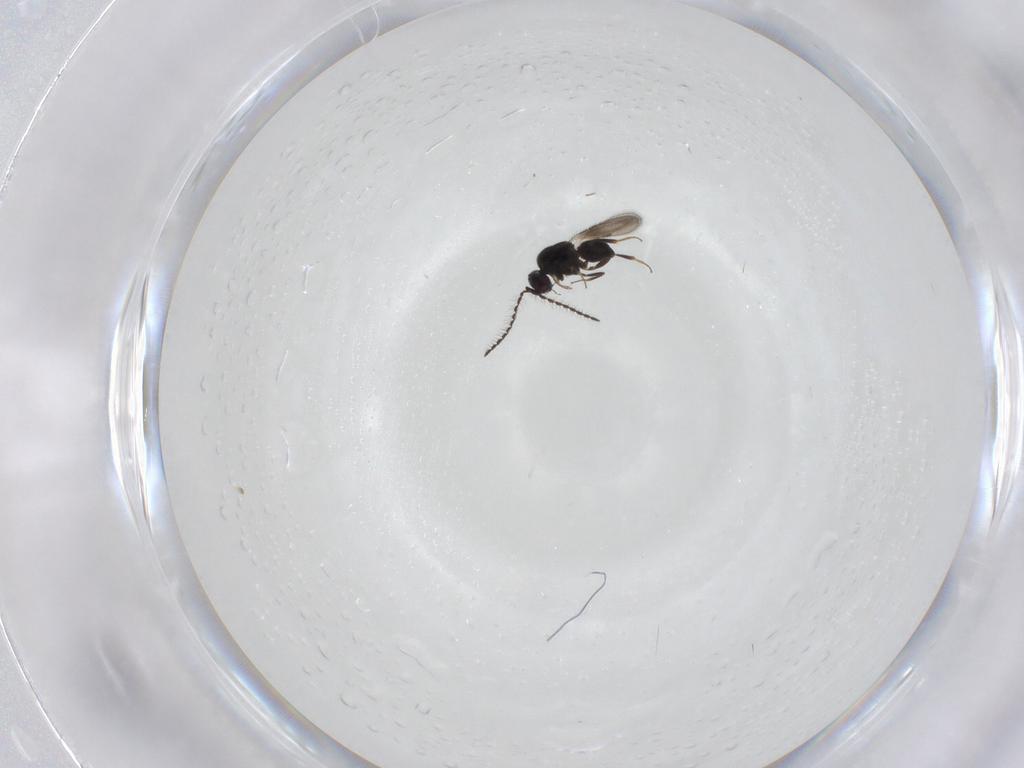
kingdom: Animalia
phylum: Arthropoda
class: Insecta
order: Hymenoptera
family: Ceraphronidae
